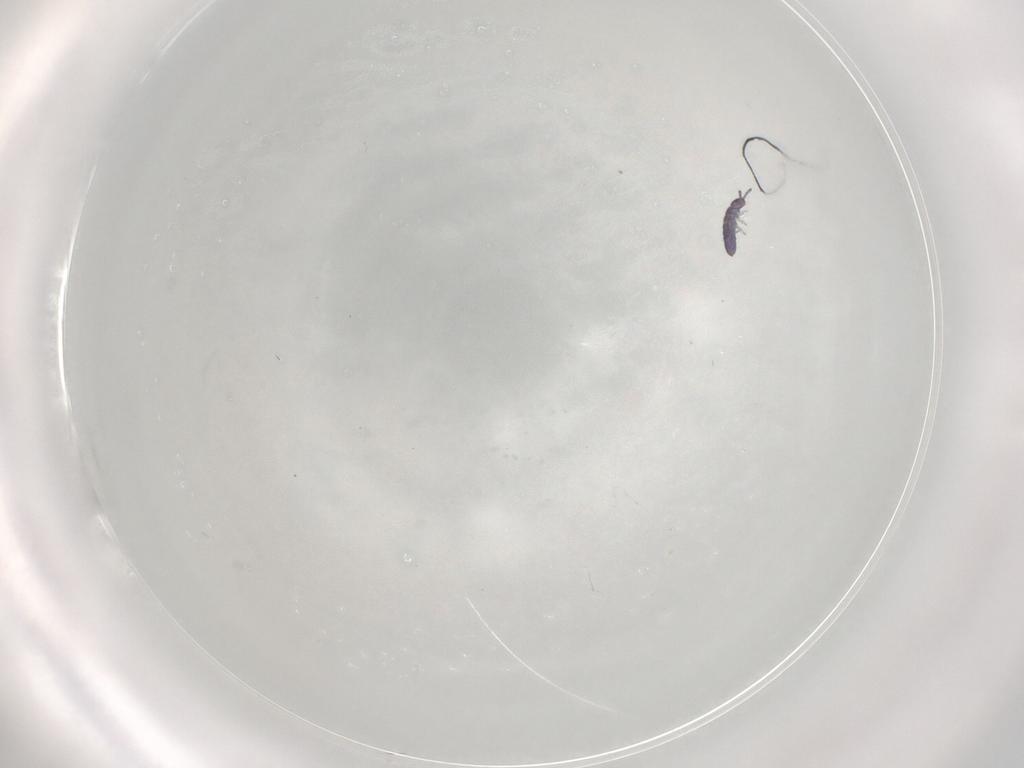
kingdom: Animalia
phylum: Arthropoda
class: Collembola
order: Entomobryomorpha
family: Isotomidae
